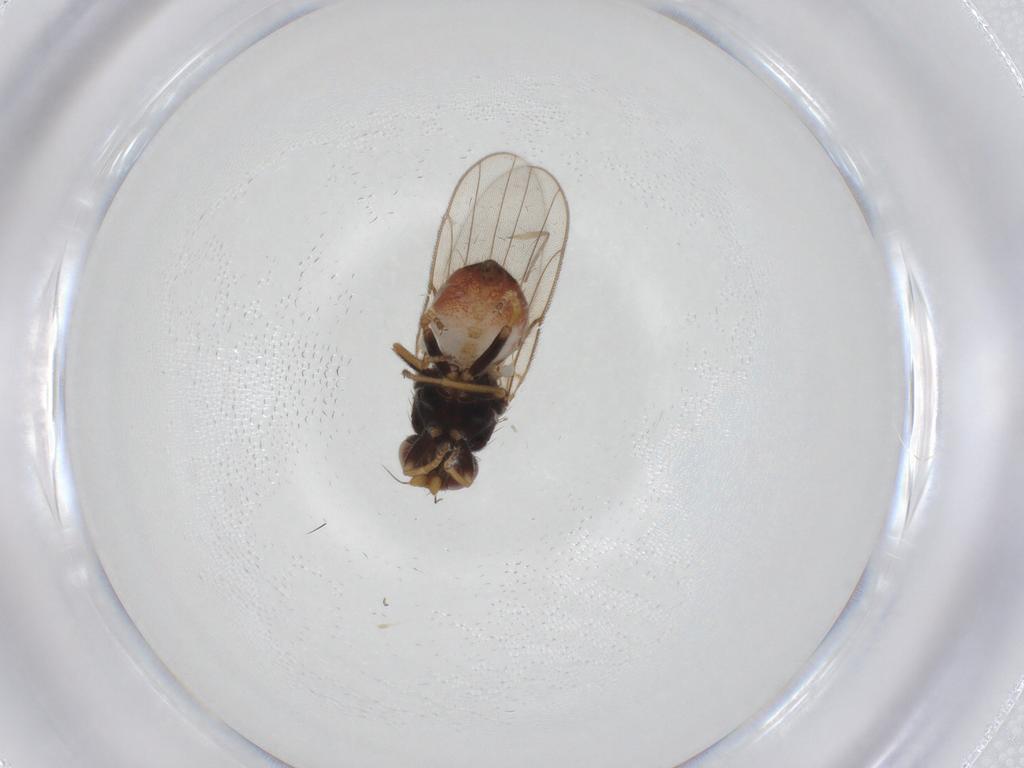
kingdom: Animalia
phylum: Arthropoda
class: Insecta
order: Diptera
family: Chloropidae
